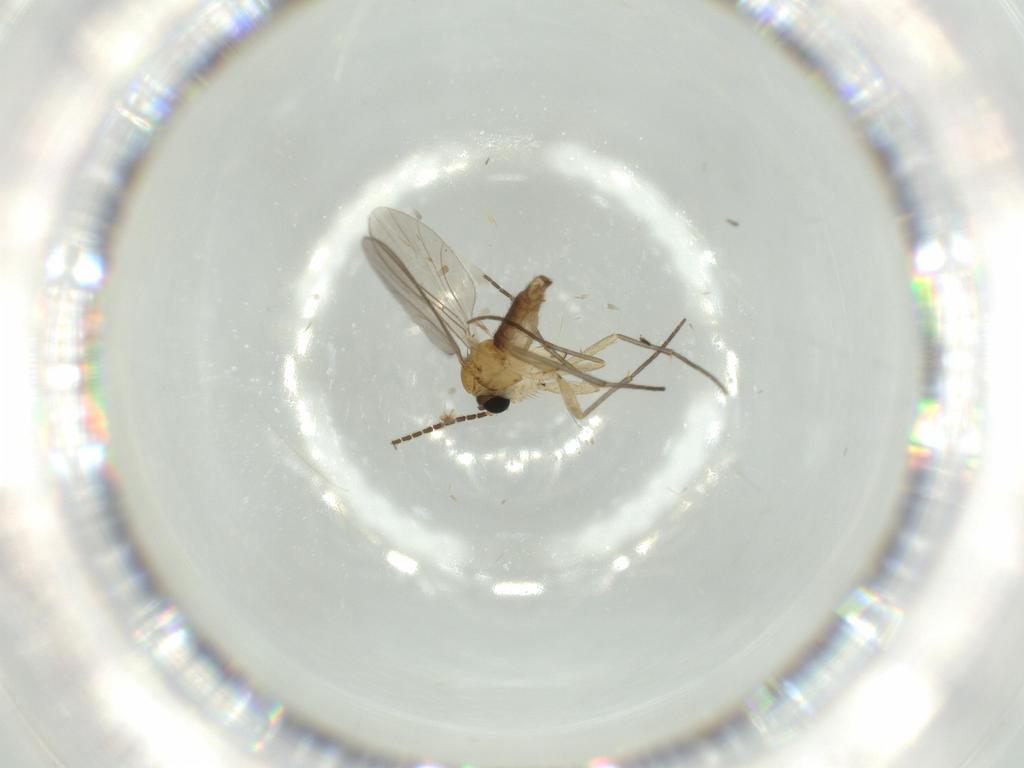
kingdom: Animalia
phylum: Arthropoda
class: Insecta
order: Diptera
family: Sciaridae
